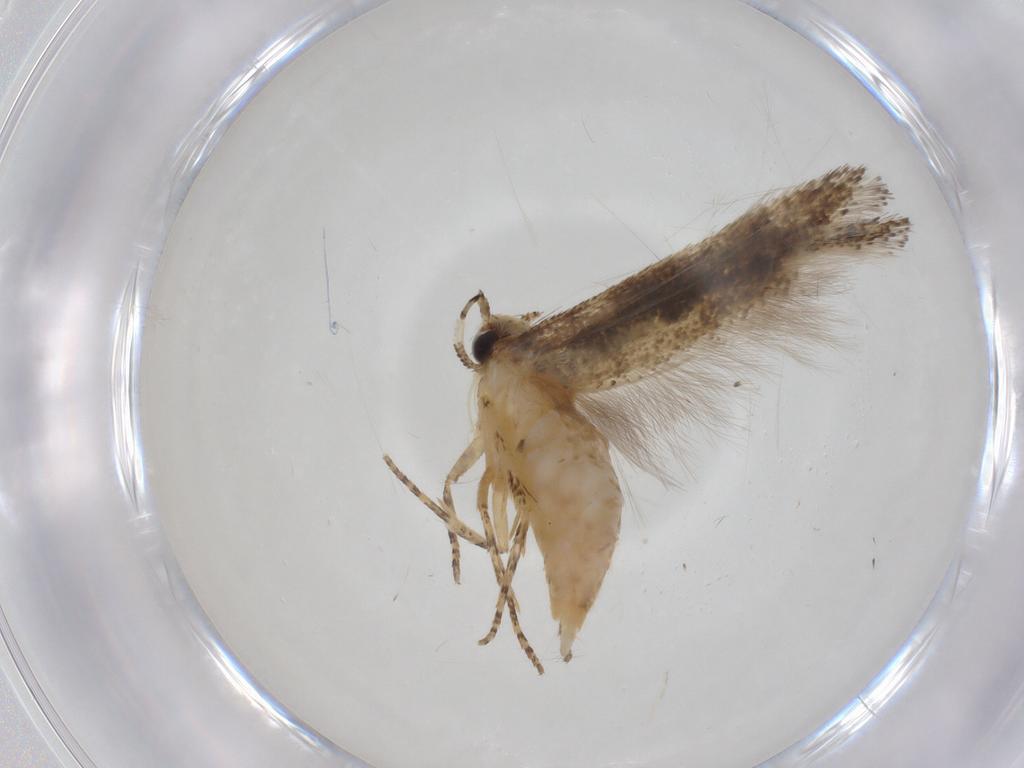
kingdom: Animalia
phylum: Arthropoda
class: Insecta
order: Lepidoptera
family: Gelechiidae
